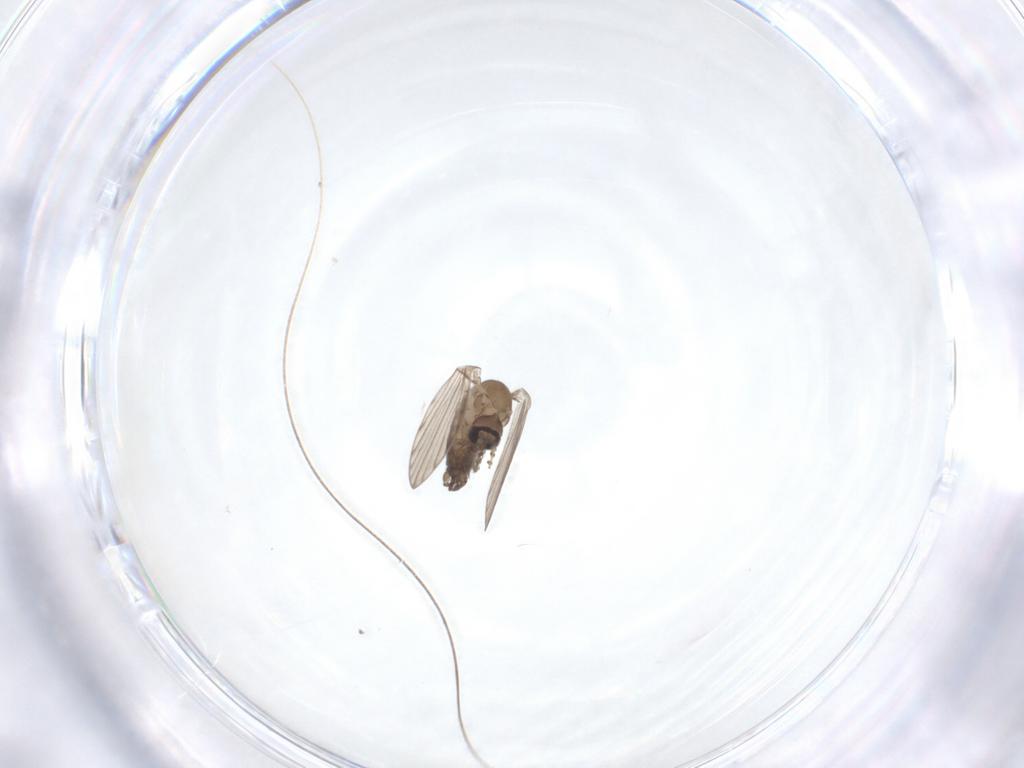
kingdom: Animalia
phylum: Arthropoda
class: Insecta
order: Diptera
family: Psychodidae
